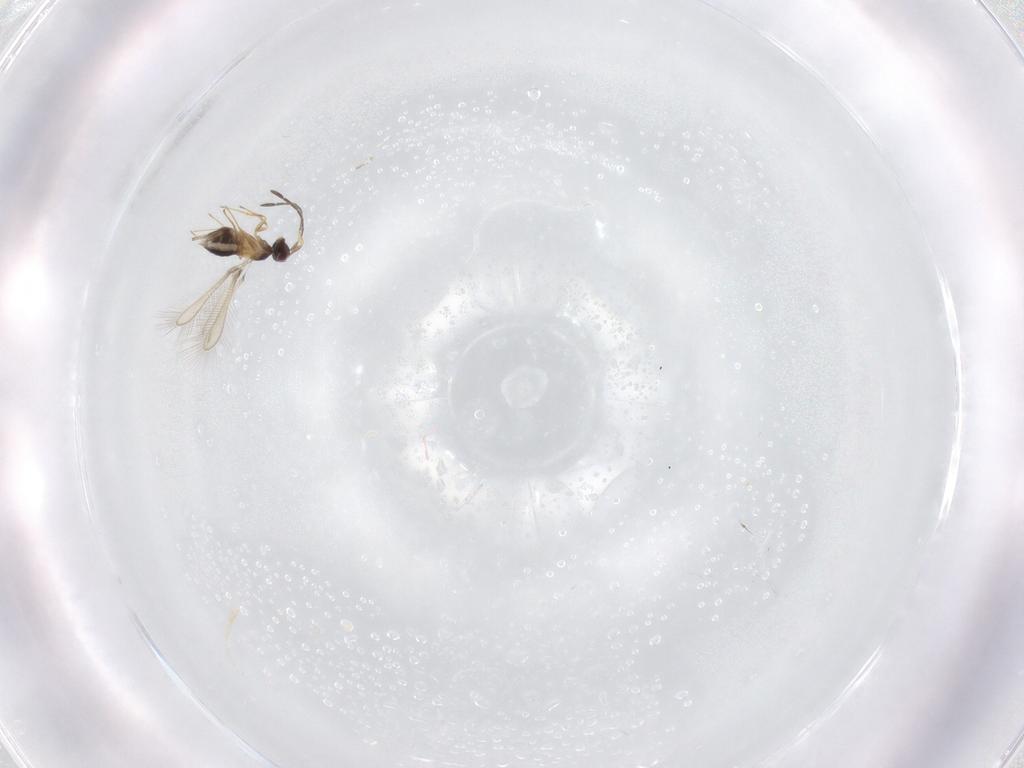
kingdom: Animalia
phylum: Arthropoda
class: Insecta
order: Hymenoptera
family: Mymaridae
